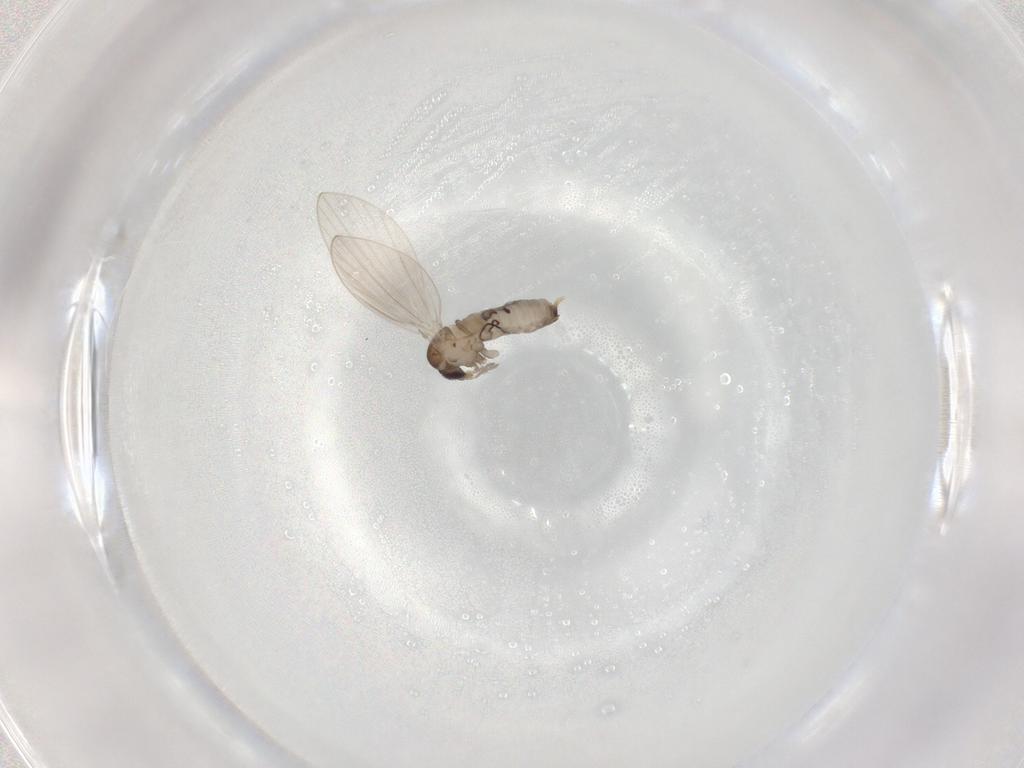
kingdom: Animalia
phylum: Arthropoda
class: Insecta
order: Diptera
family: Psychodidae
